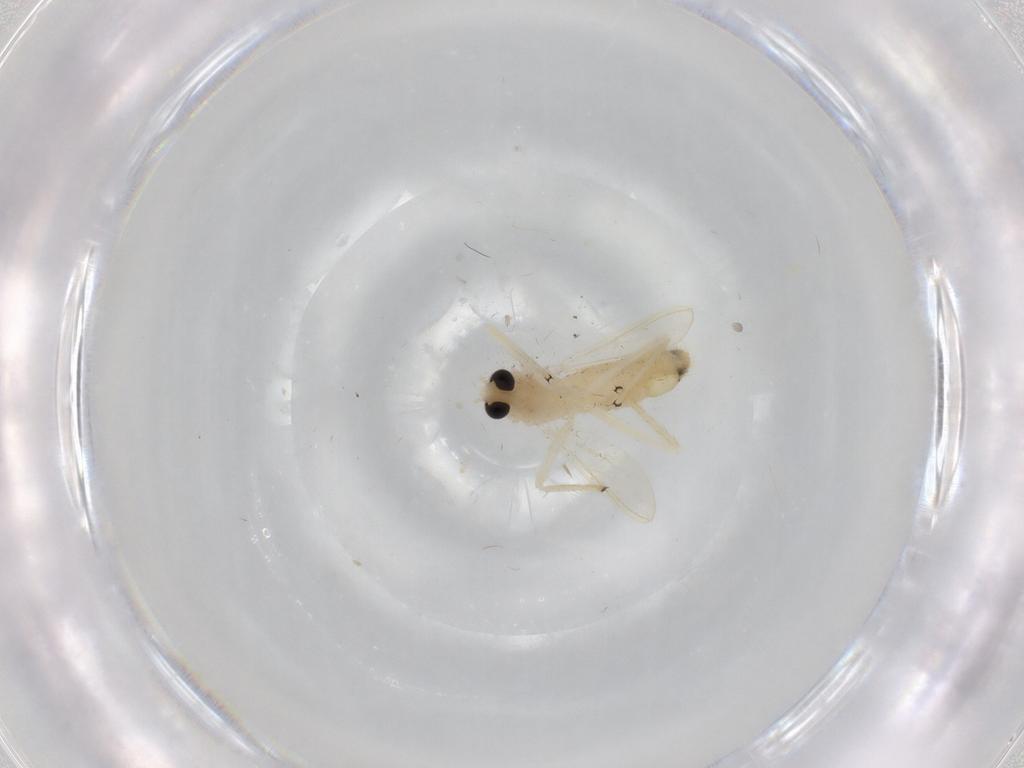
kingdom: Animalia
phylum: Arthropoda
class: Insecta
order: Diptera
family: Chironomidae
